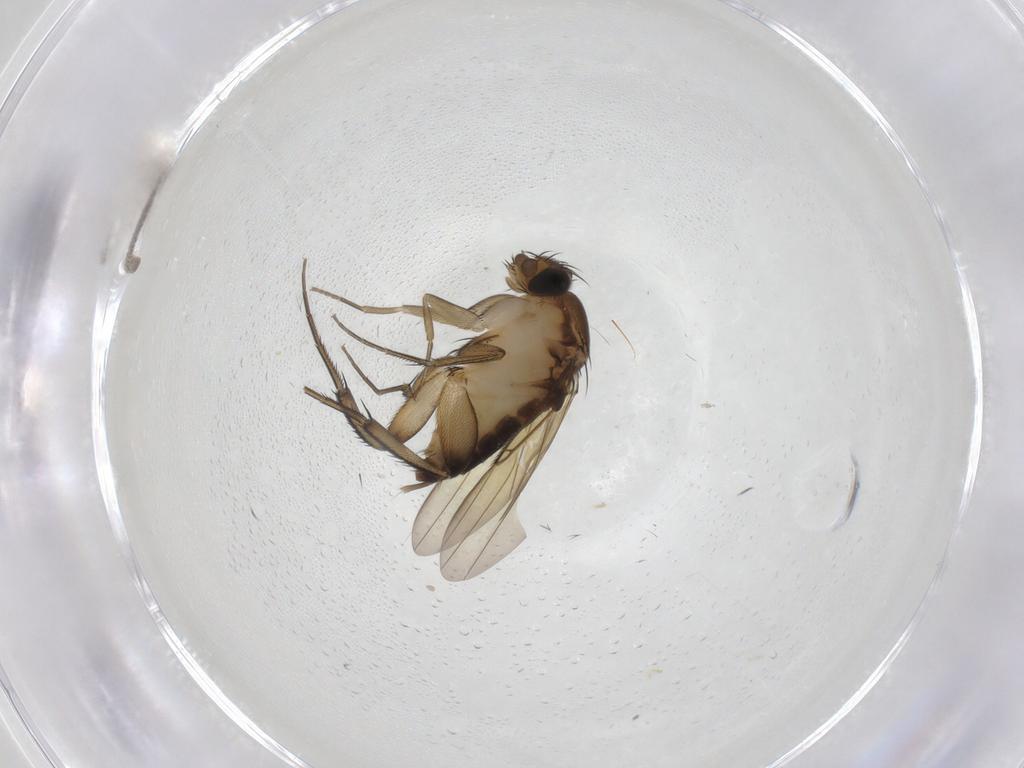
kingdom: Animalia
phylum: Arthropoda
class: Insecta
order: Diptera
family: Phoridae
